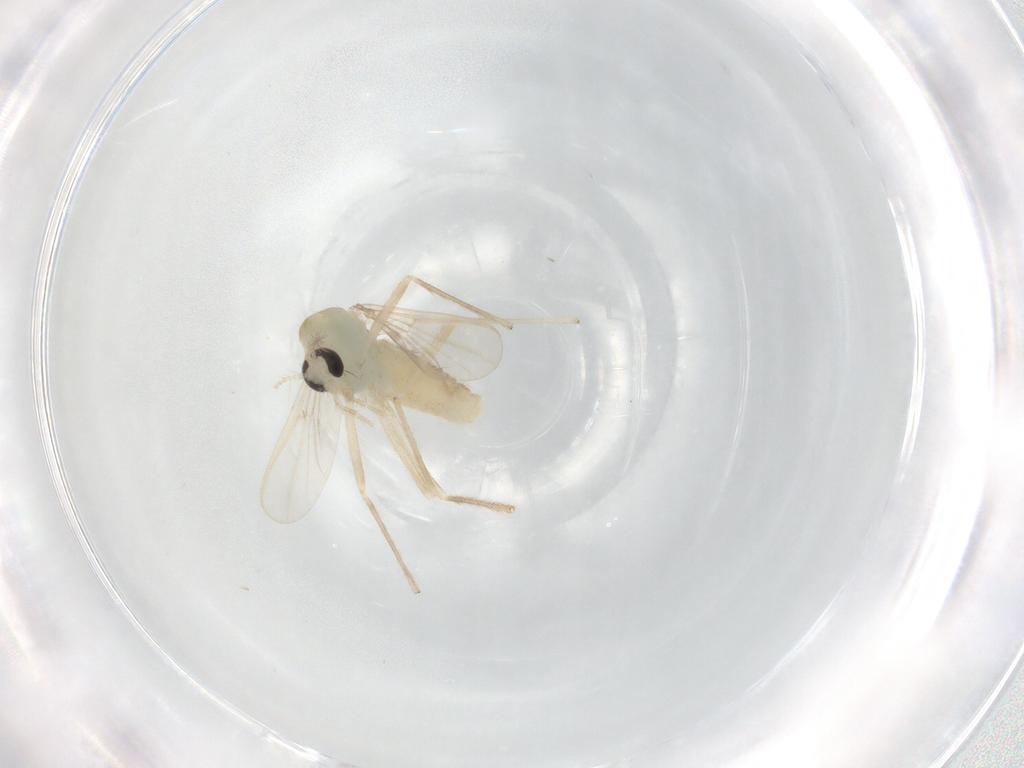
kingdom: Animalia
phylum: Arthropoda
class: Insecta
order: Diptera
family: Chironomidae
